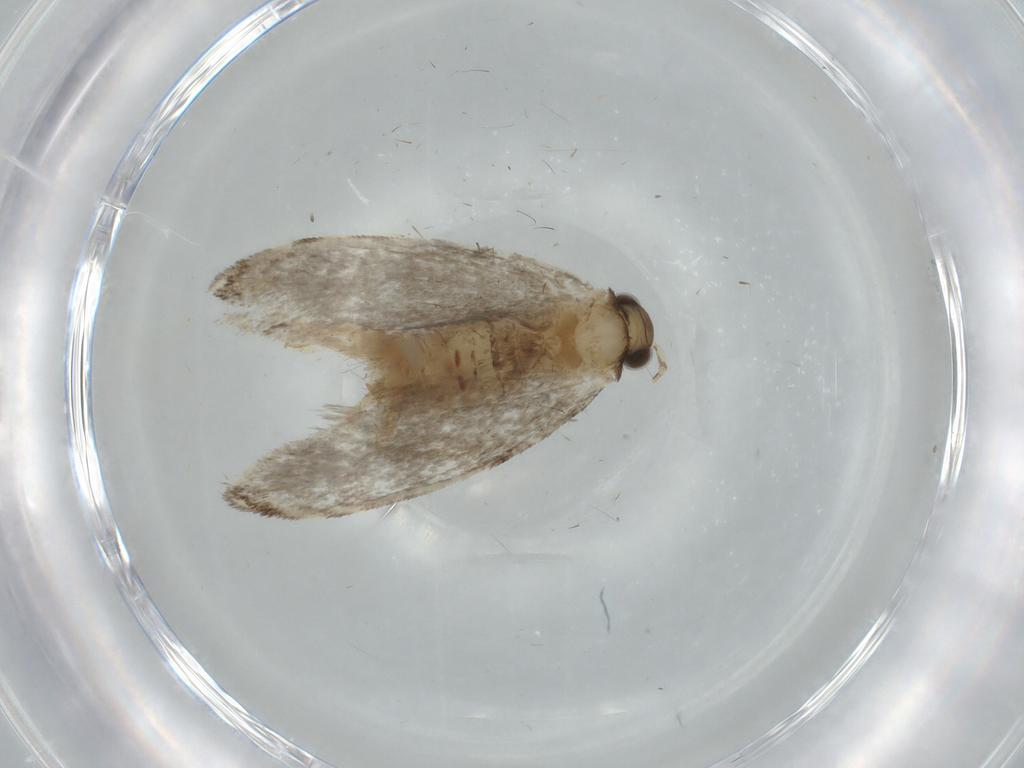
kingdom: Animalia
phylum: Arthropoda
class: Insecta
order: Lepidoptera
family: Tineidae
